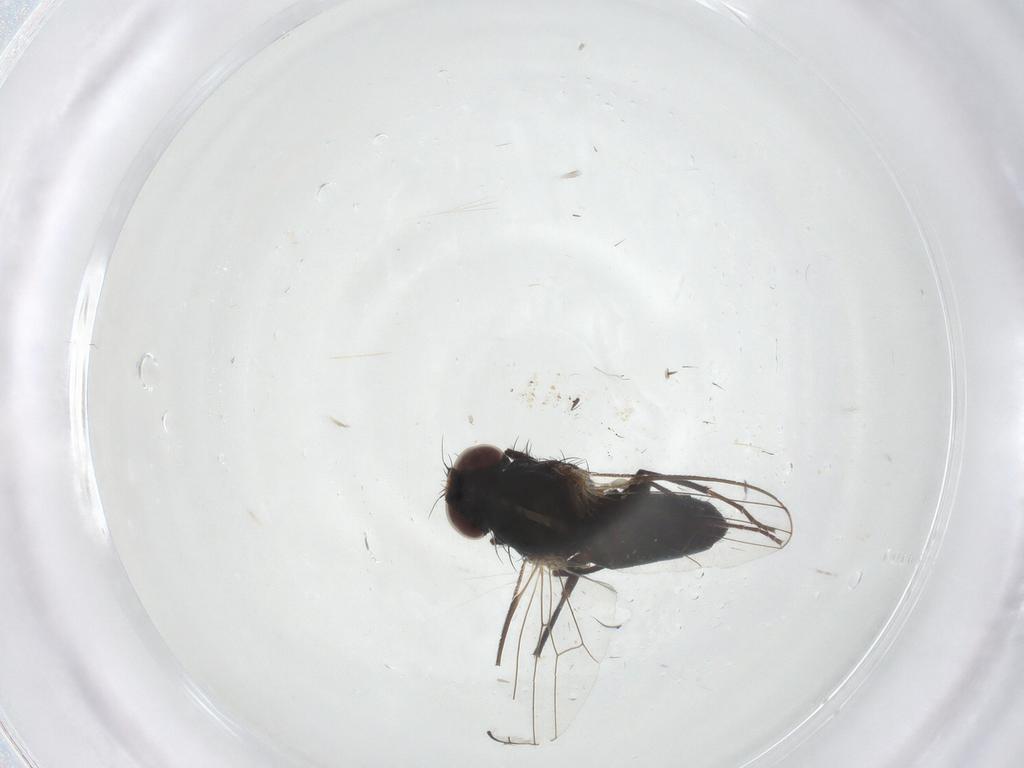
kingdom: Animalia
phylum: Arthropoda
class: Insecta
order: Diptera
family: Carnidae
